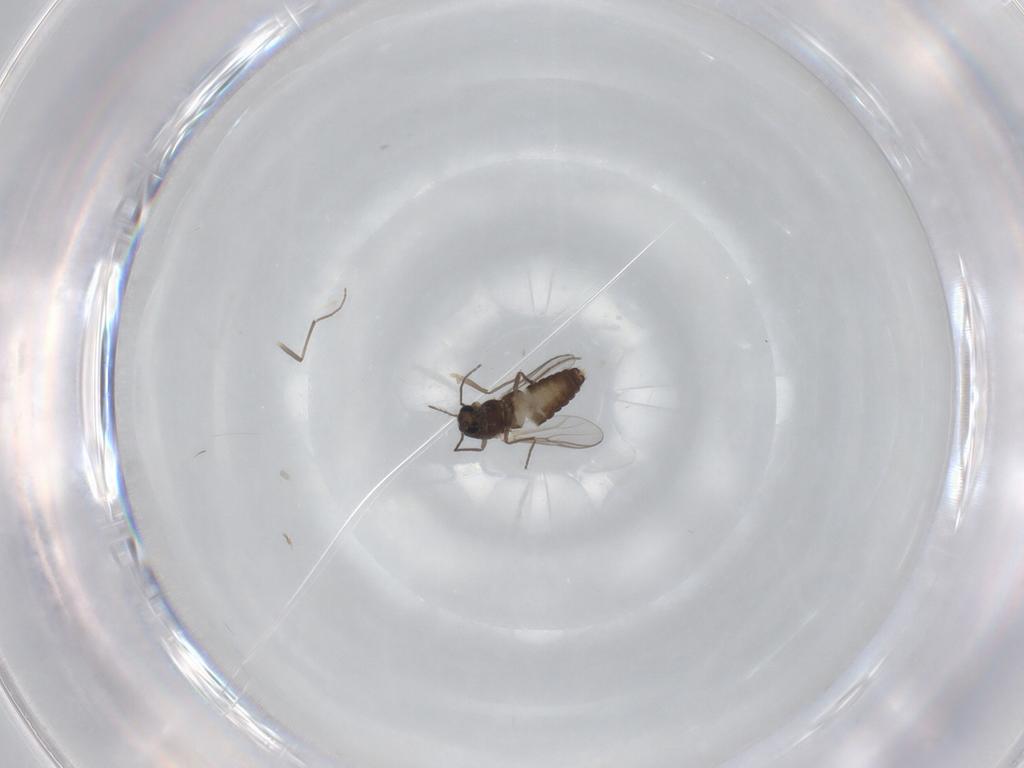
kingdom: Animalia
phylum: Arthropoda
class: Insecta
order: Diptera
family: Chironomidae
